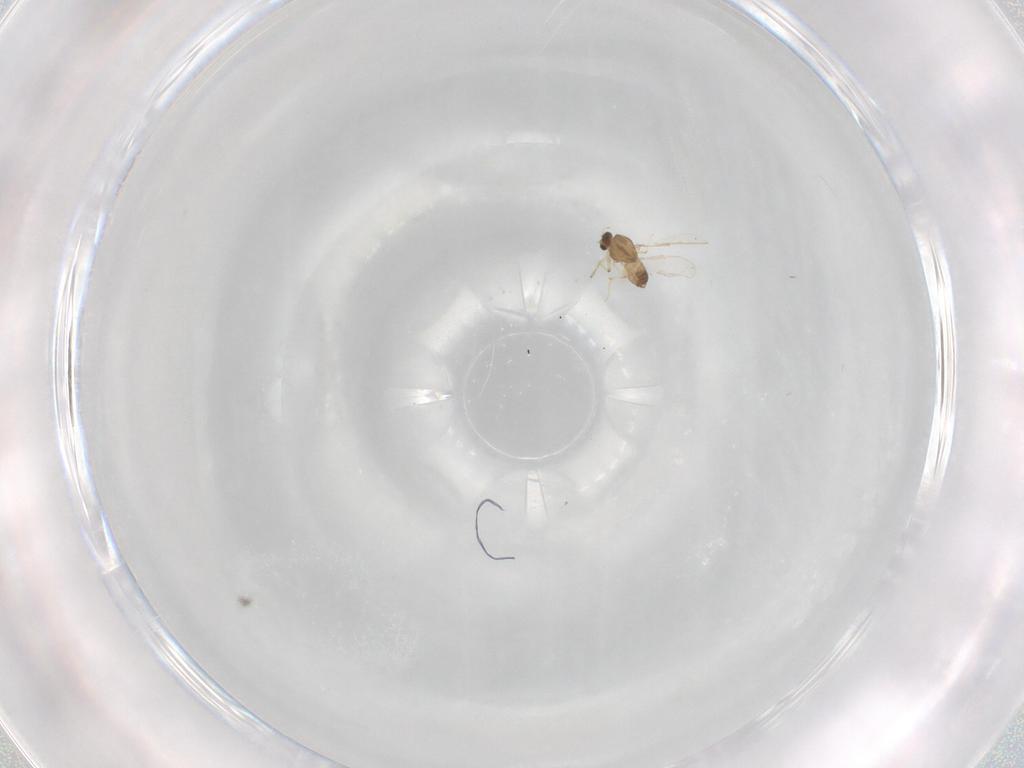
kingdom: Animalia
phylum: Arthropoda
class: Insecta
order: Diptera
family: Chironomidae
